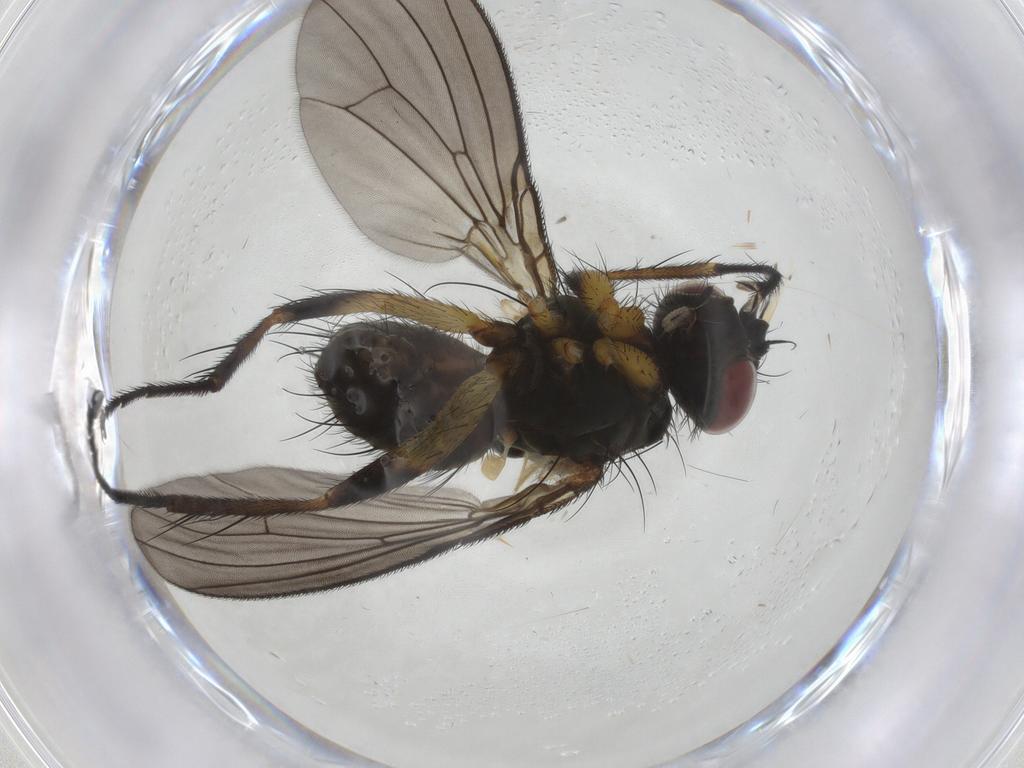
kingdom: Animalia
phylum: Arthropoda
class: Insecta
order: Diptera
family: Muscidae
